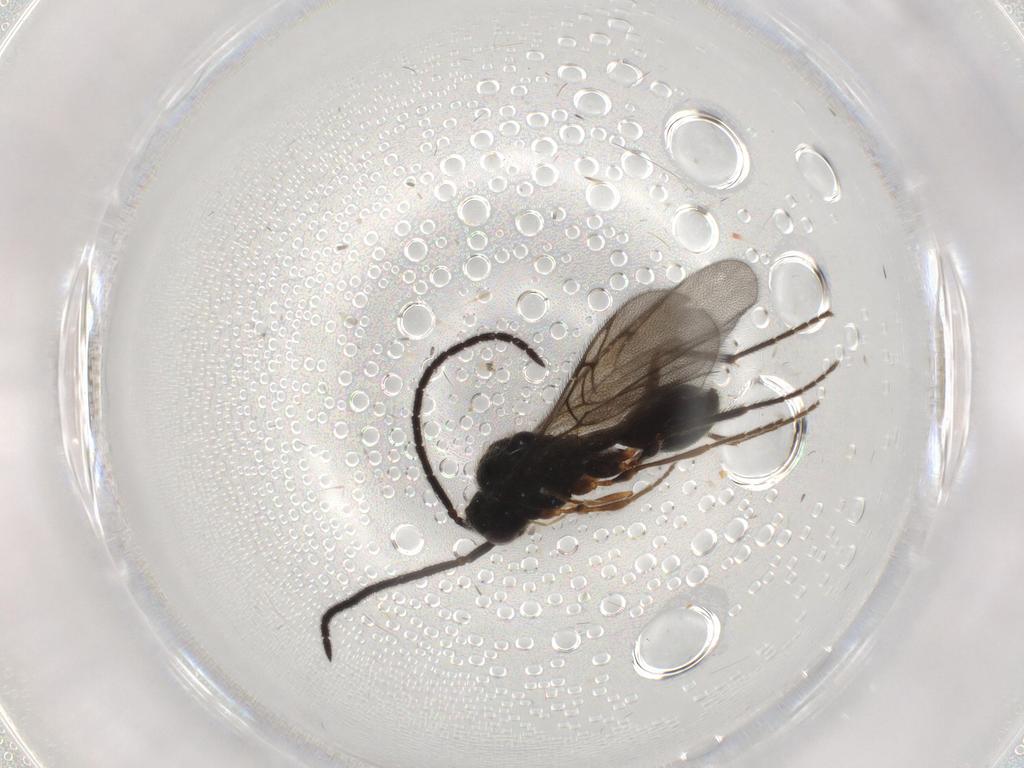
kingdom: Animalia
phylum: Arthropoda
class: Insecta
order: Hymenoptera
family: Diapriidae
